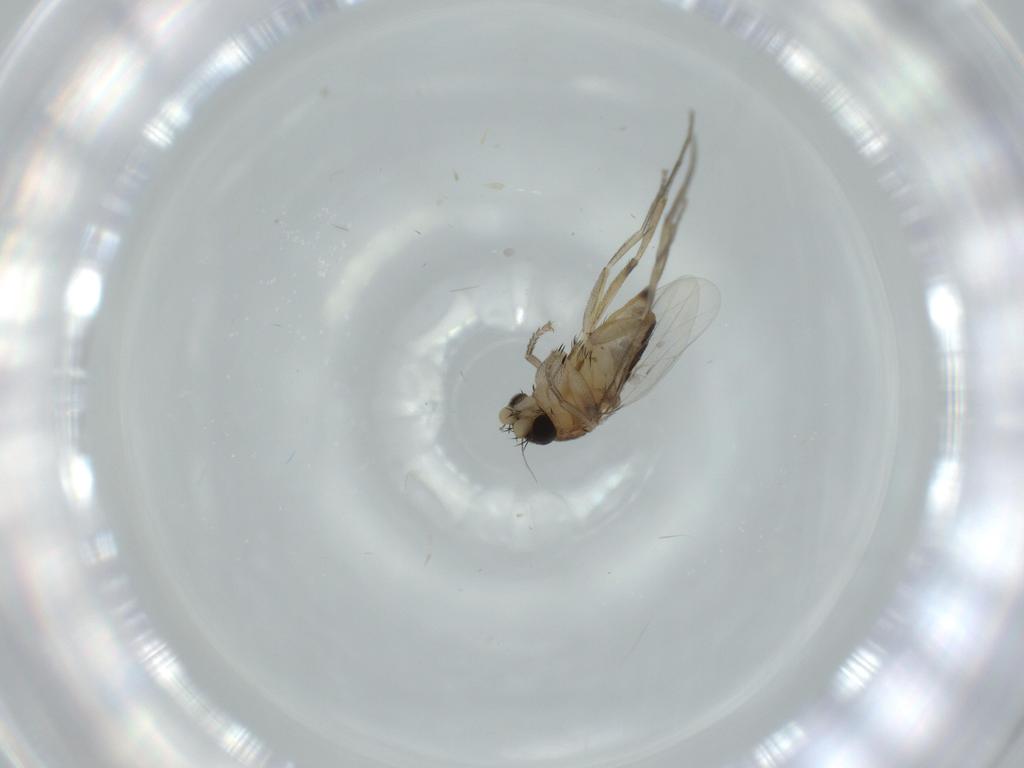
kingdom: Animalia
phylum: Arthropoda
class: Insecta
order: Diptera
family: Phoridae
